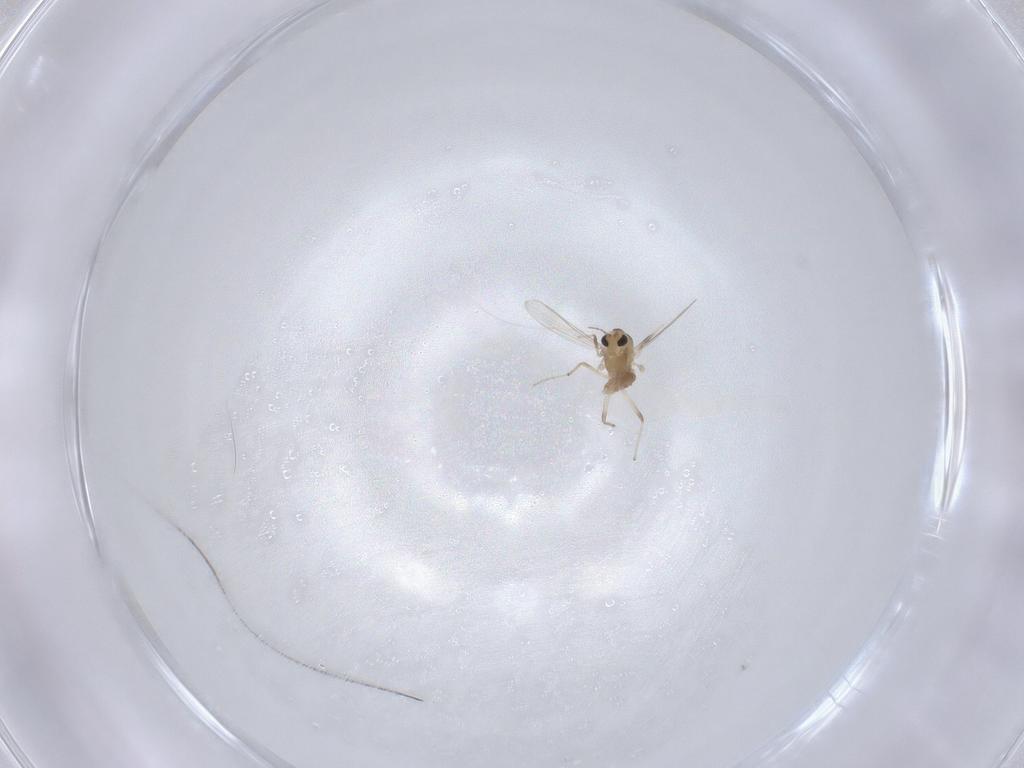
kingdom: Animalia
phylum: Arthropoda
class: Insecta
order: Diptera
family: Chironomidae
